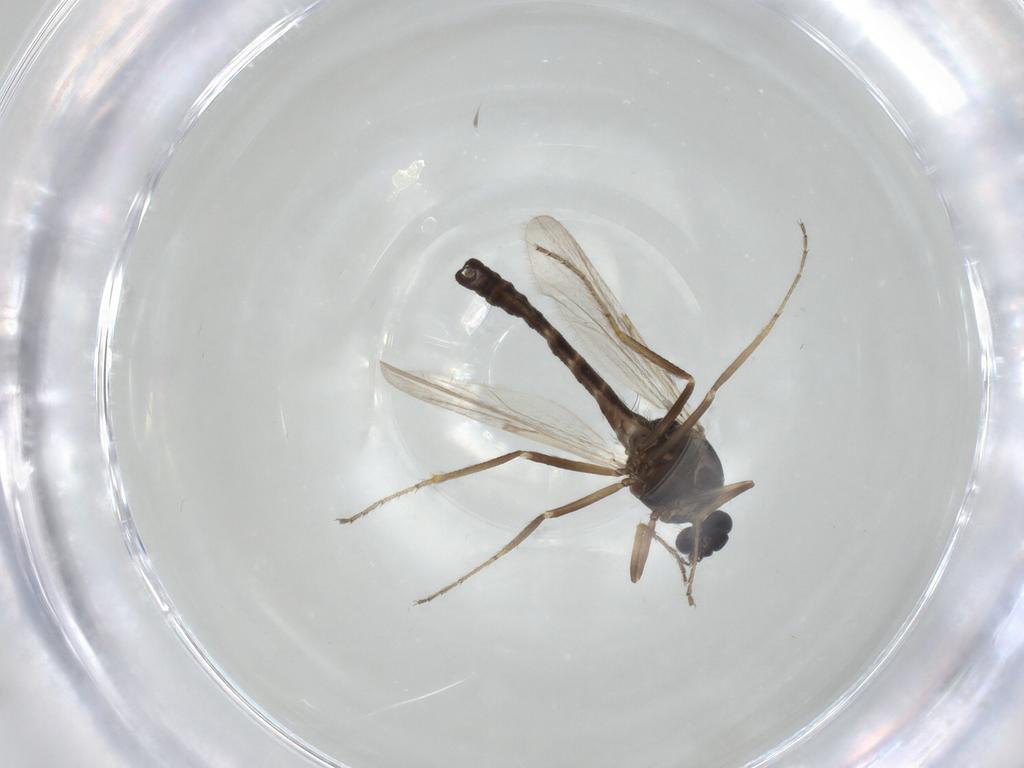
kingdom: Animalia
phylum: Arthropoda
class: Insecta
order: Diptera
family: Ceratopogonidae
